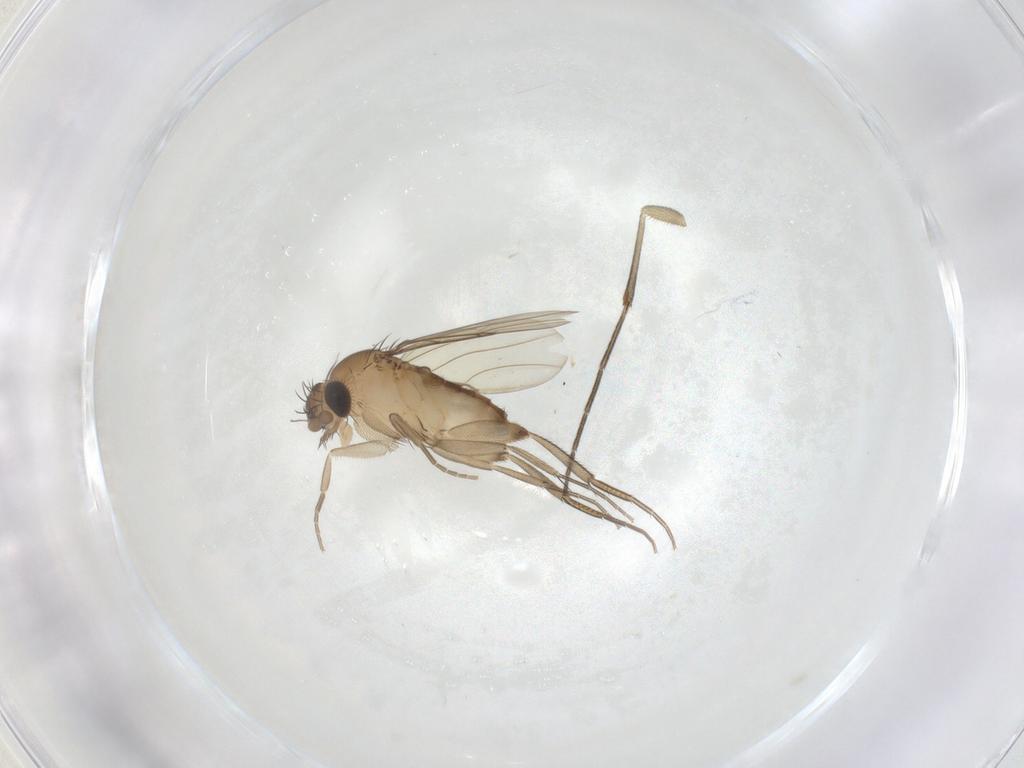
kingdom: Animalia
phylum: Arthropoda
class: Insecta
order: Diptera
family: Phoridae
